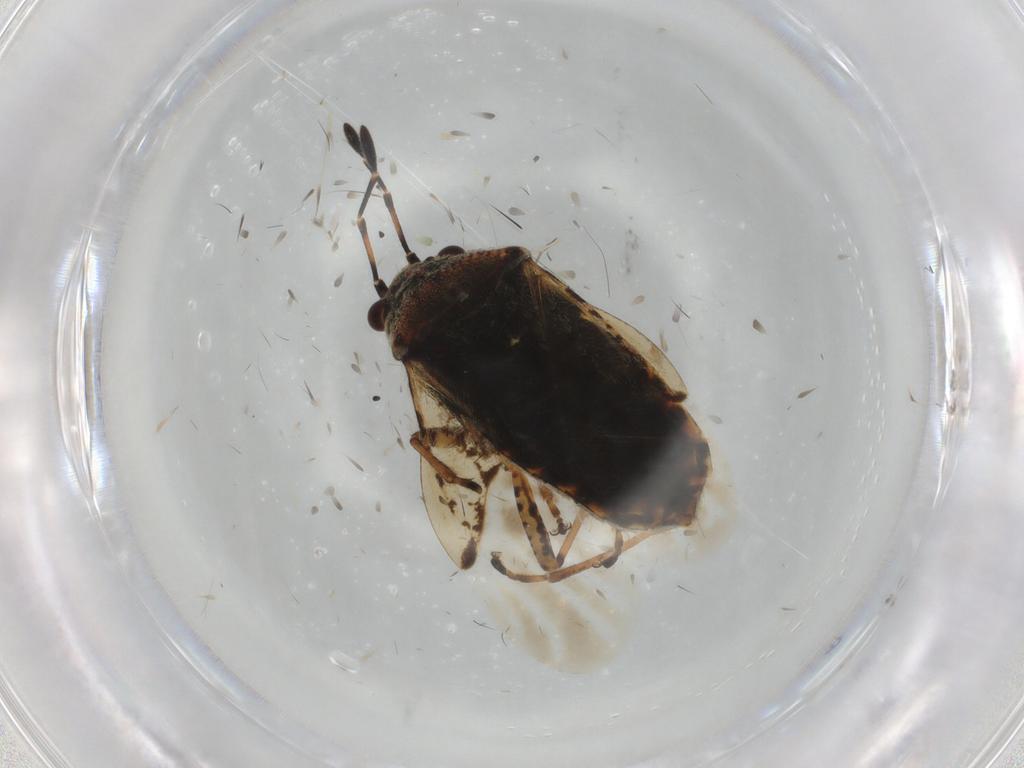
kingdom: Animalia
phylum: Arthropoda
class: Insecta
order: Hemiptera
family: Lygaeidae
